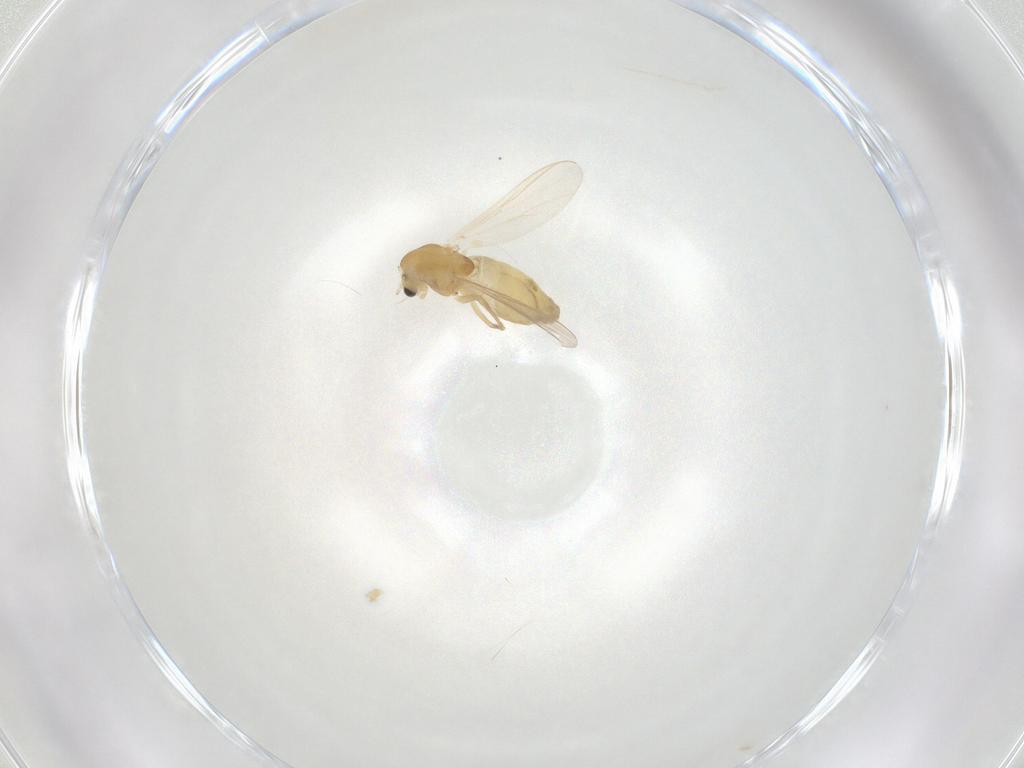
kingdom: Animalia
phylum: Arthropoda
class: Insecta
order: Diptera
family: Chironomidae
